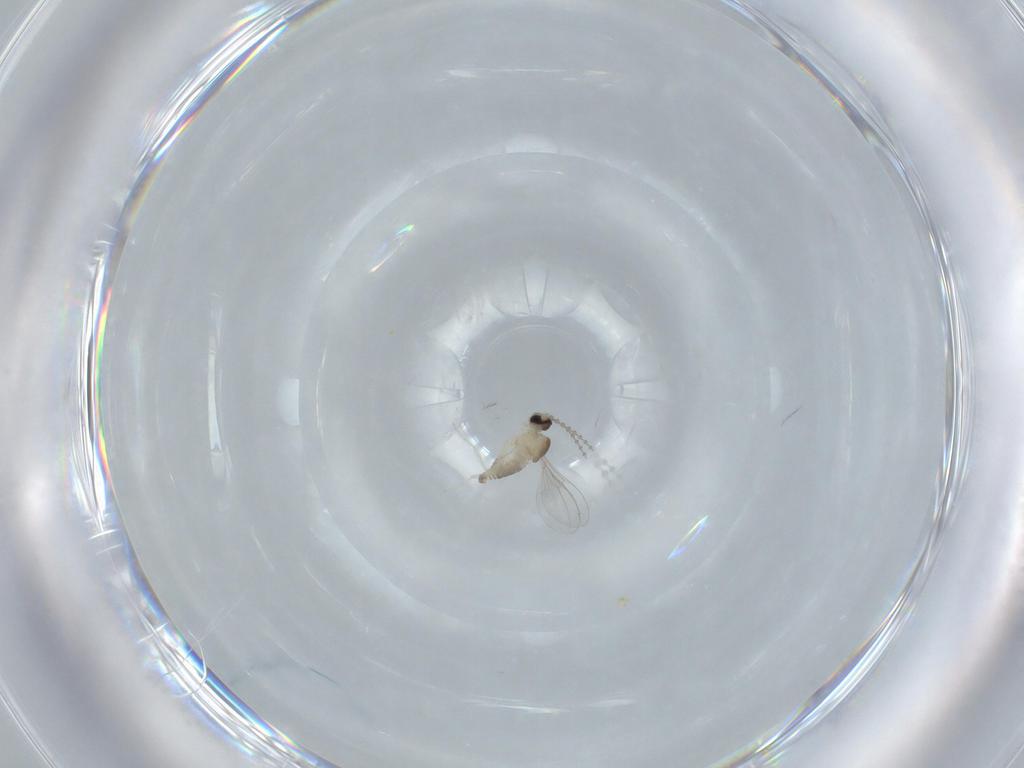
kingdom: Animalia
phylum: Arthropoda
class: Insecta
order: Diptera
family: Cecidomyiidae
